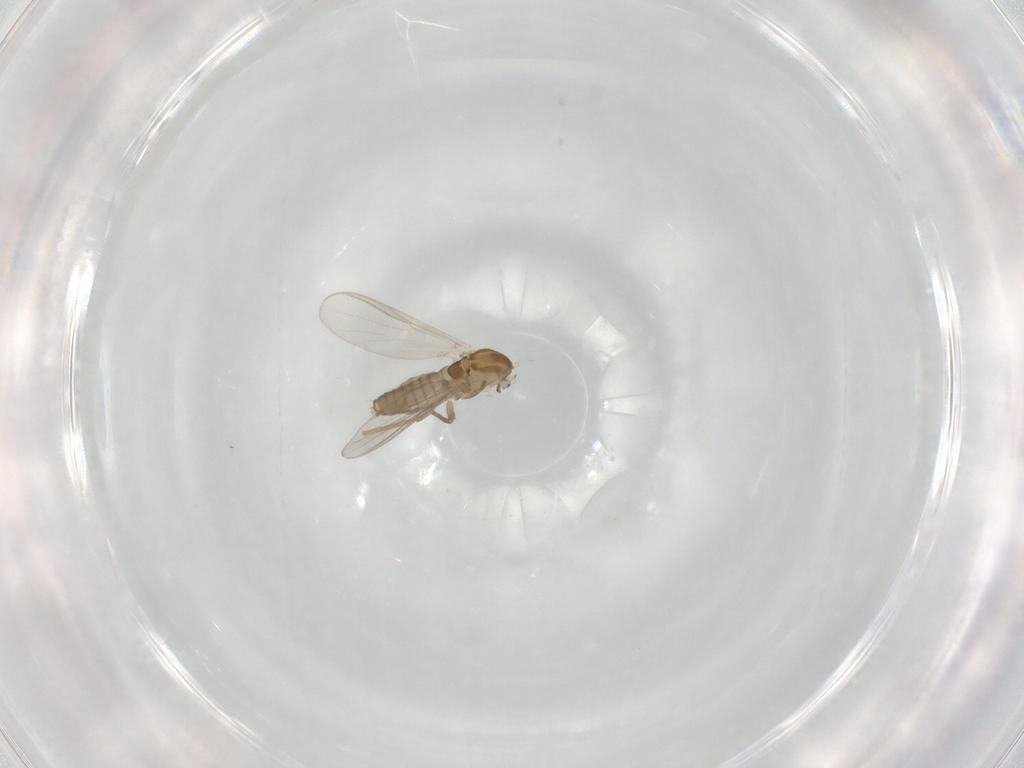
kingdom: Animalia
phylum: Arthropoda
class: Insecta
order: Diptera
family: Chironomidae
